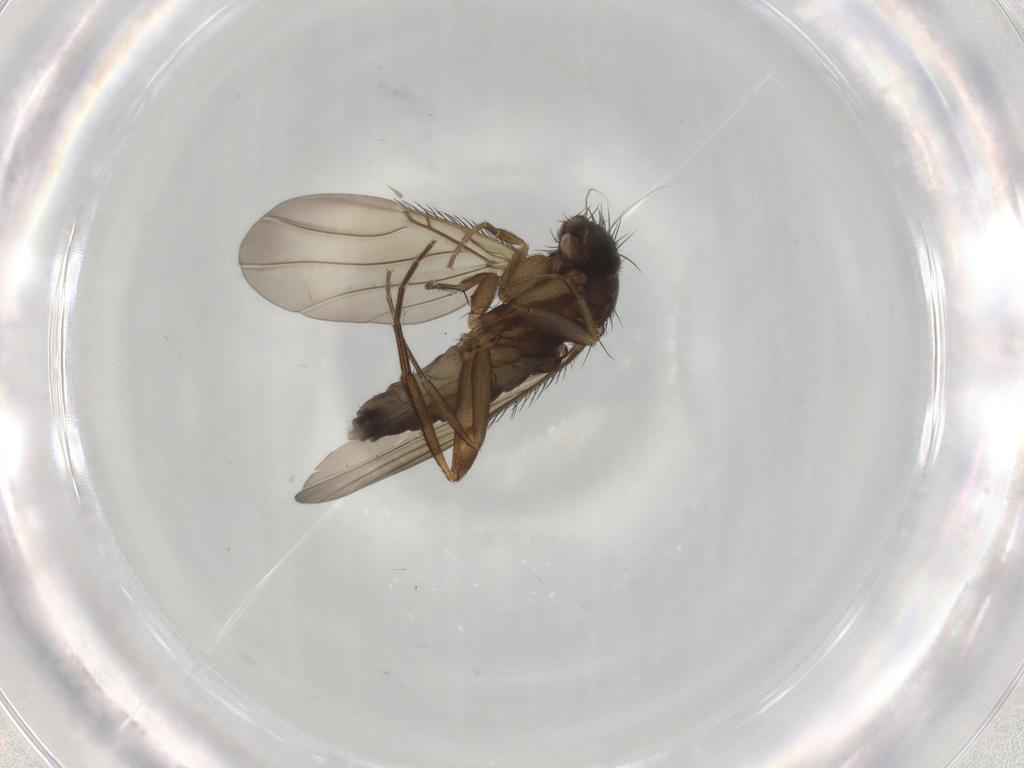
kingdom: Animalia
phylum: Arthropoda
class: Insecta
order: Diptera
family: Phoridae
